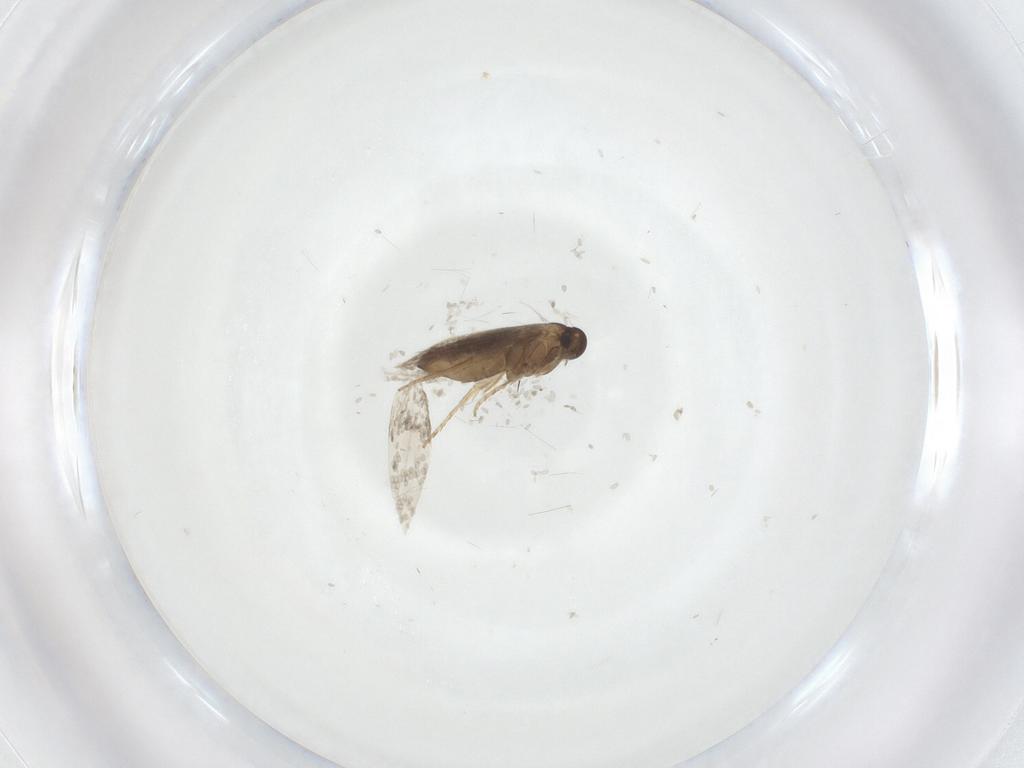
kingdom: Animalia
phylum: Arthropoda
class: Insecta
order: Lepidoptera
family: Heliozelidae
